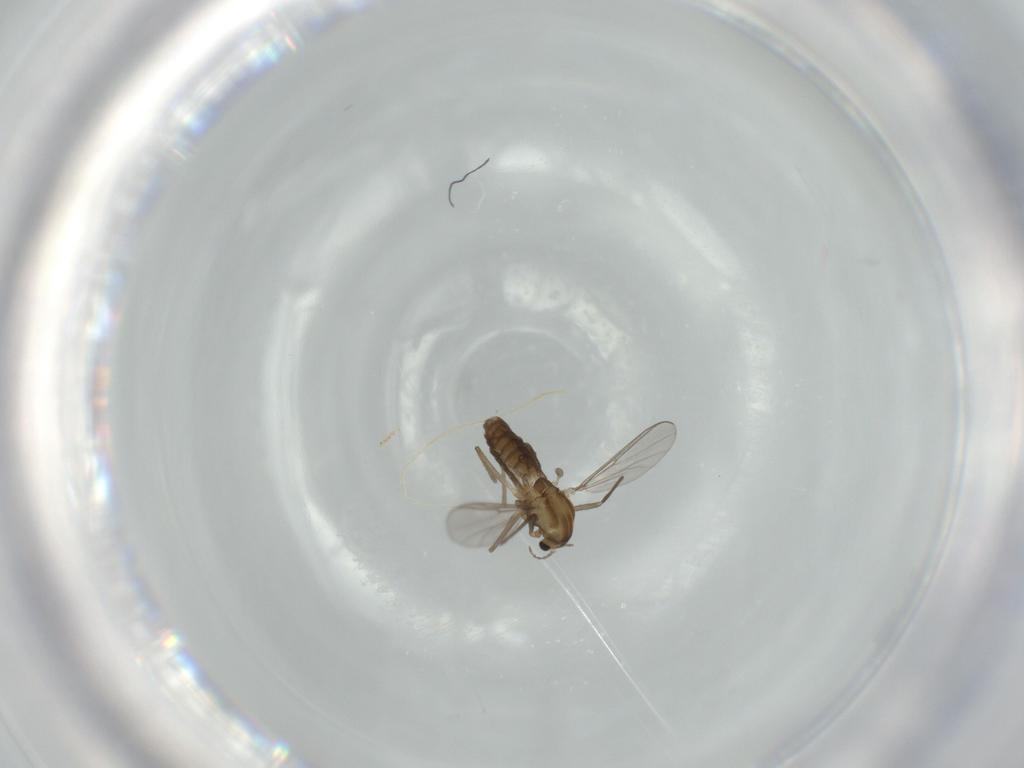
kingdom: Animalia
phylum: Arthropoda
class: Insecta
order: Diptera
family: Chironomidae
